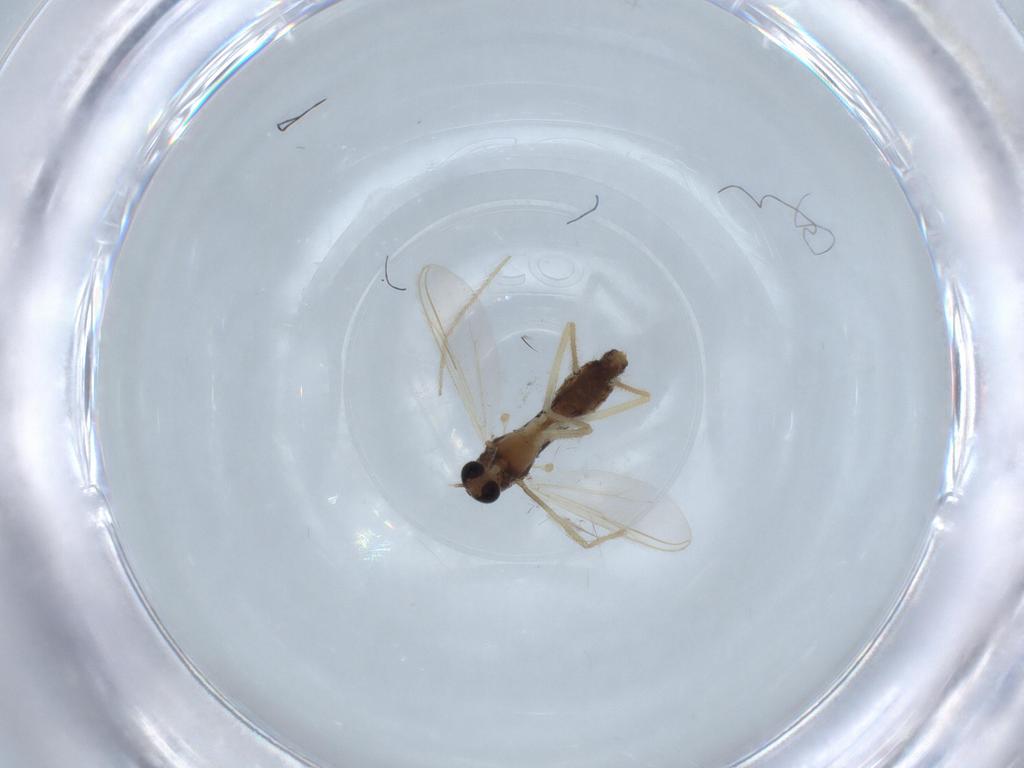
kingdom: Animalia
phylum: Arthropoda
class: Insecta
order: Diptera
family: Chironomidae
